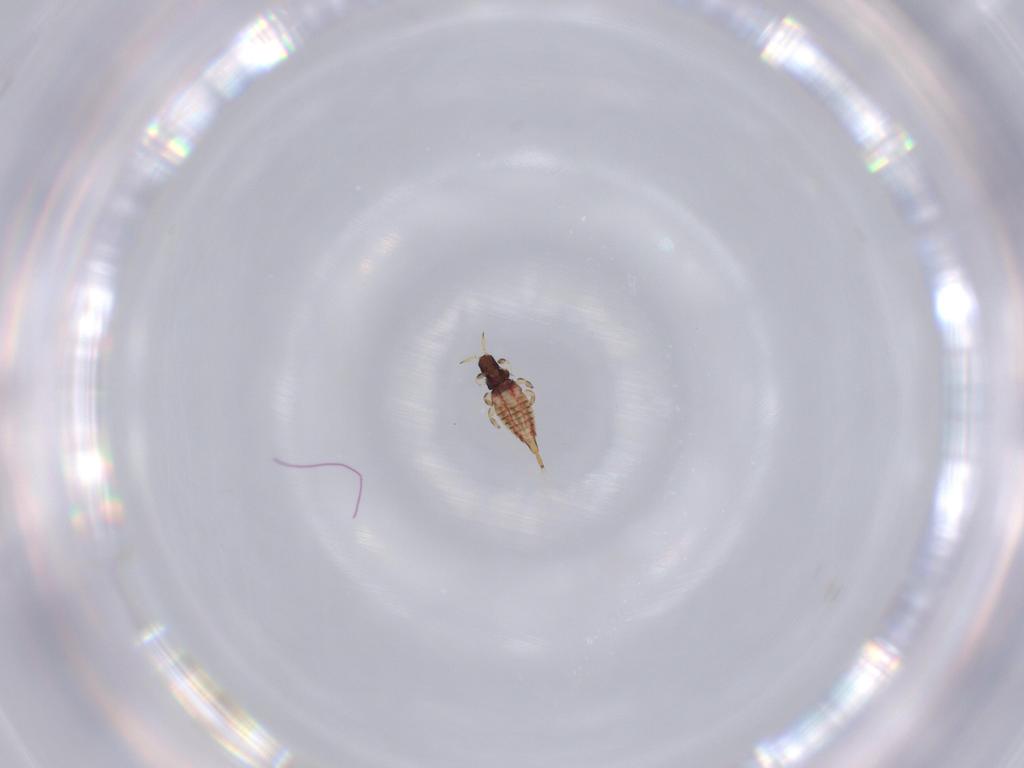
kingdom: Animalia
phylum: Arthropoda
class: Insecta
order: Thysanoptera
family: Phlaeothripidae
